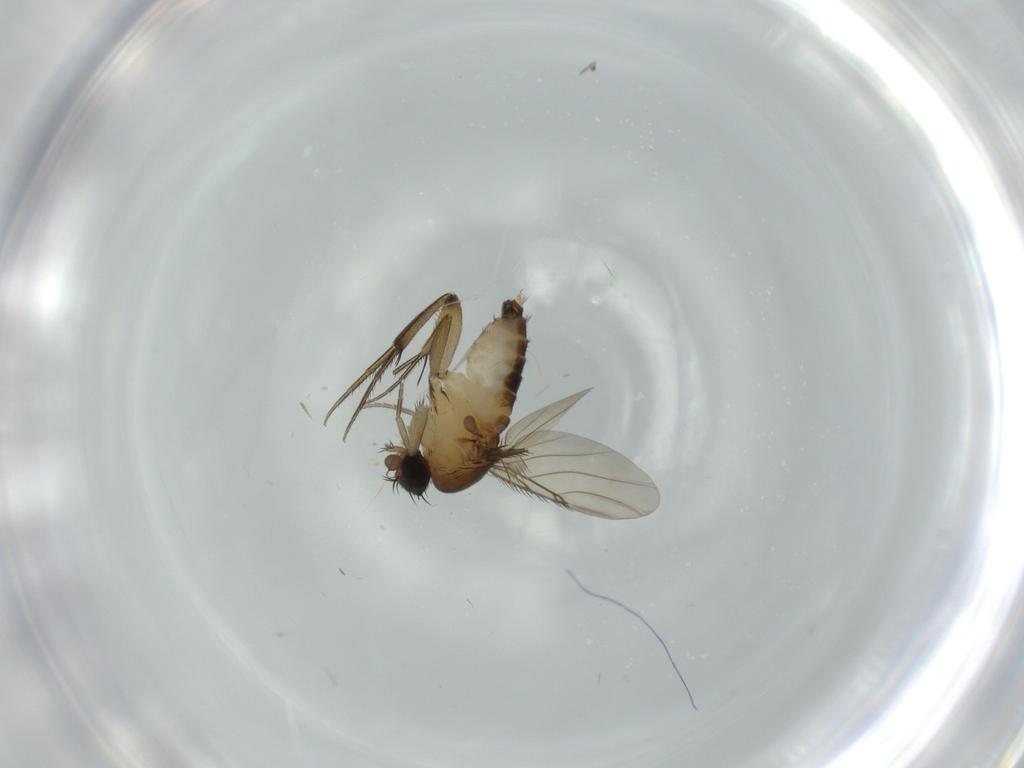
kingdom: Animalia
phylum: Arthropoda
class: Insecta
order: Diptera
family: Phoridae
